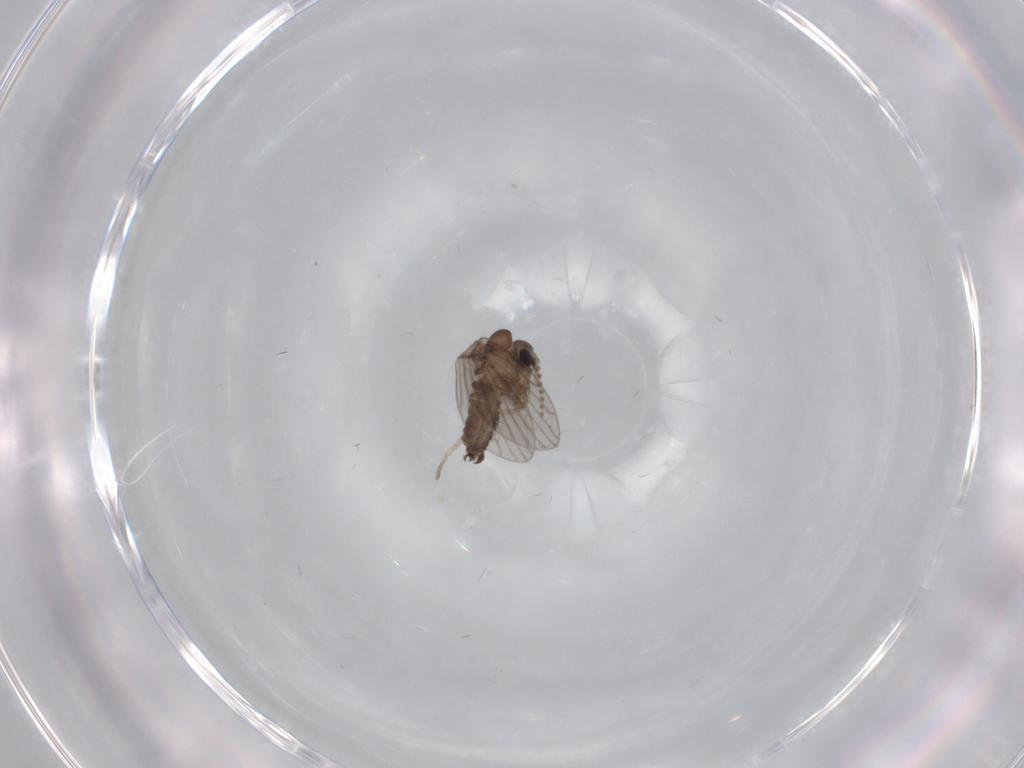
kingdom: Animalia
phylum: Arthropoda
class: Insecta
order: Diptera
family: Cecidomyiidae
